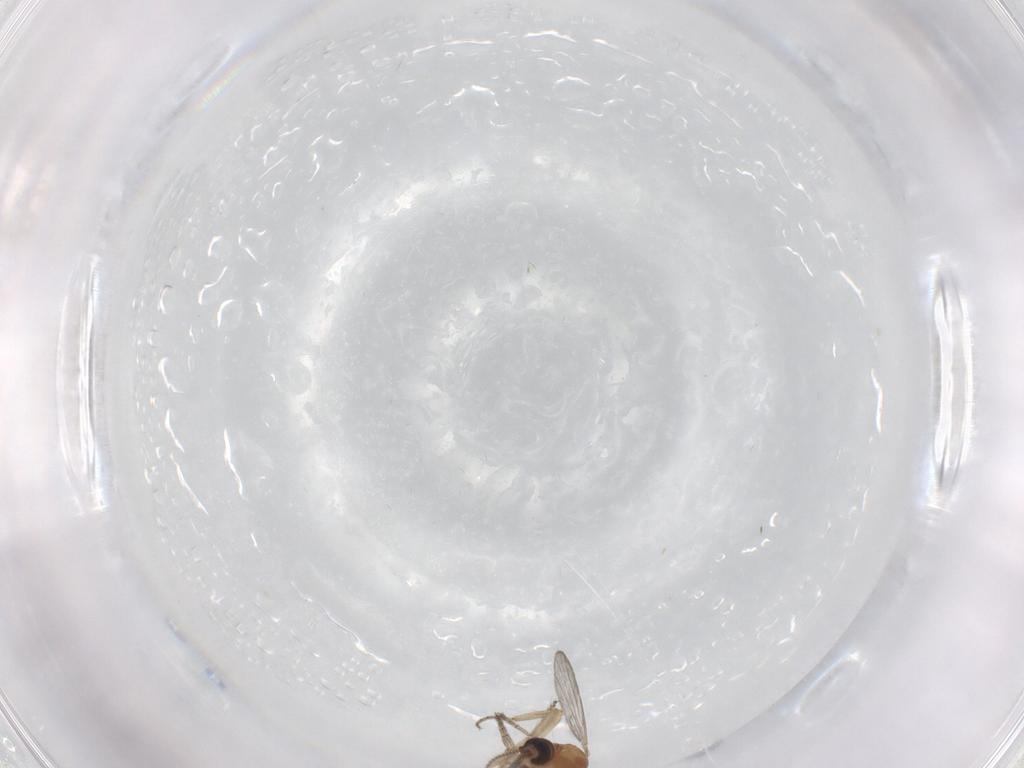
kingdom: Animalia
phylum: Arthropoda
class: Insecta
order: Diptera
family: Ceratopogonidae
